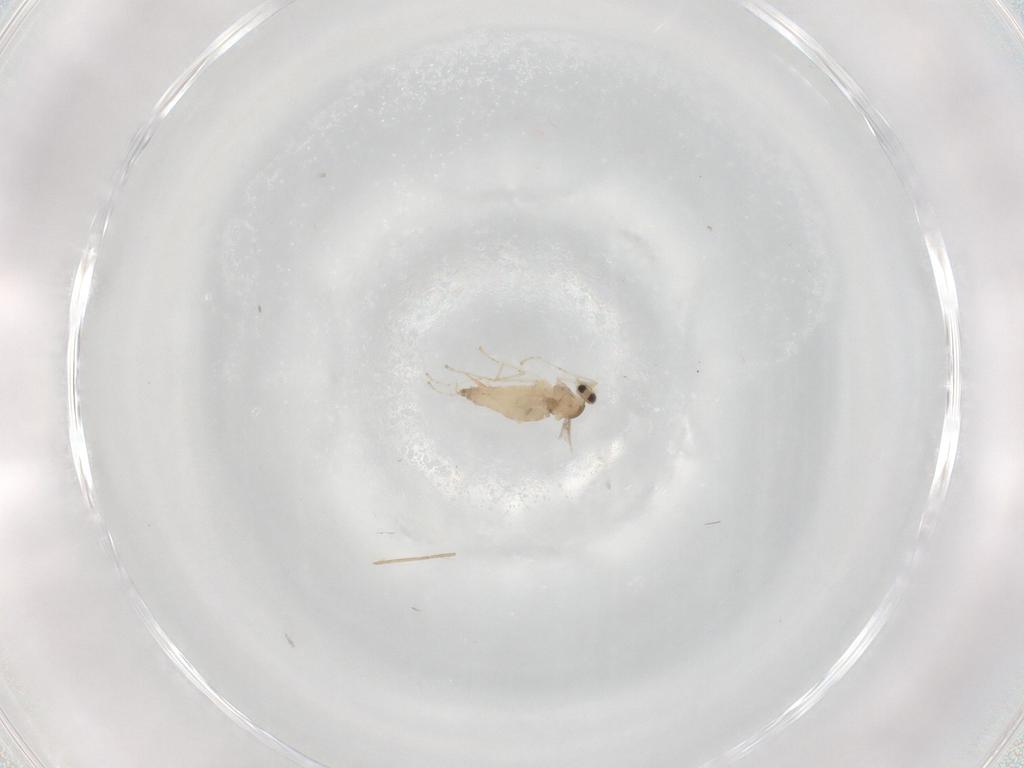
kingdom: Animalia
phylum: Arthropoda
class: Insecta
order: Diptera
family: Cecidomyiidae
